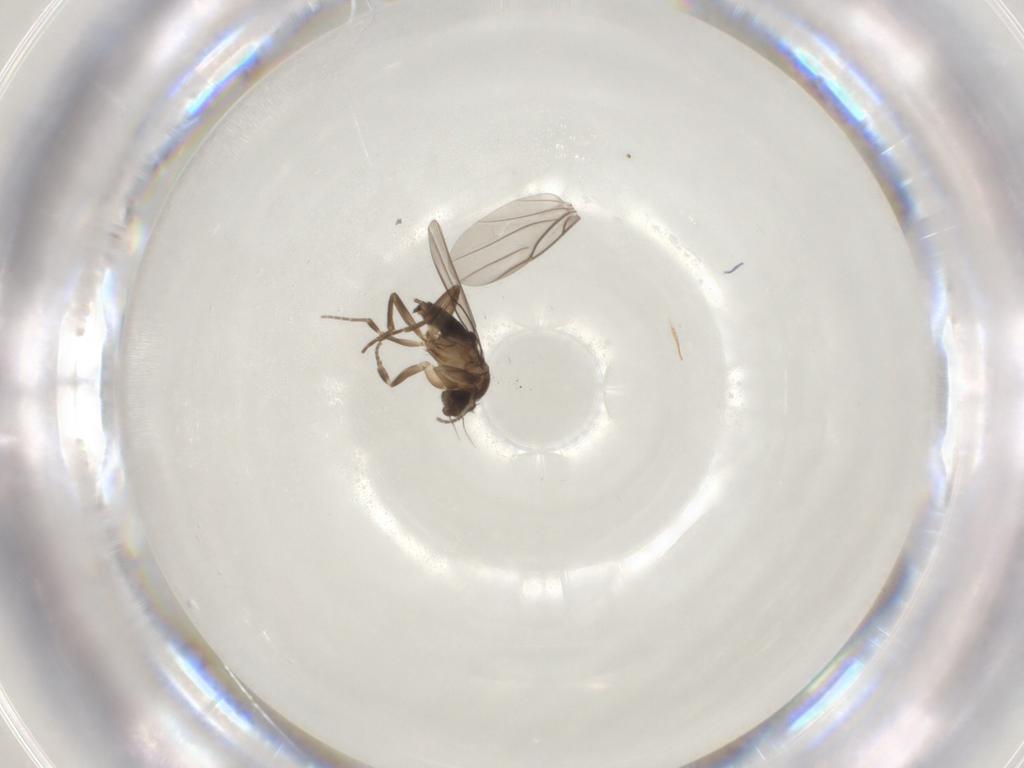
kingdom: Animalia
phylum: Arthropoda
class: Insecta
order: Diptera
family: Phoridae
